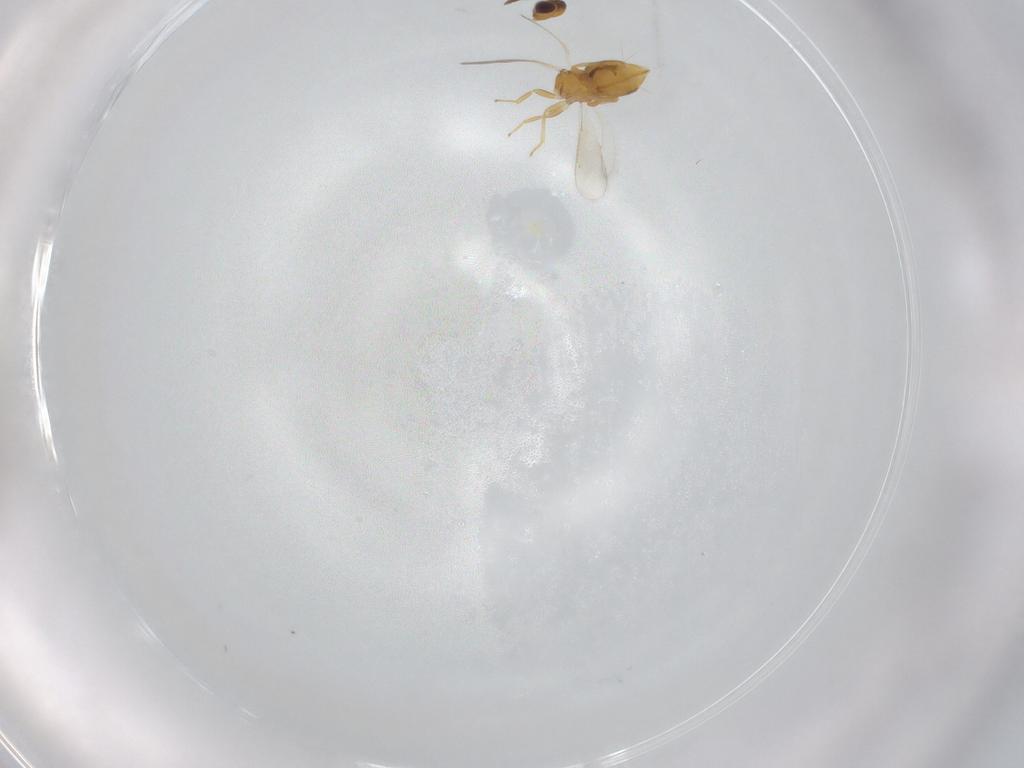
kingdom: Animalia
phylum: Arthropoda
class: Insecta
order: Hymenoptera
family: Aphelinidae
